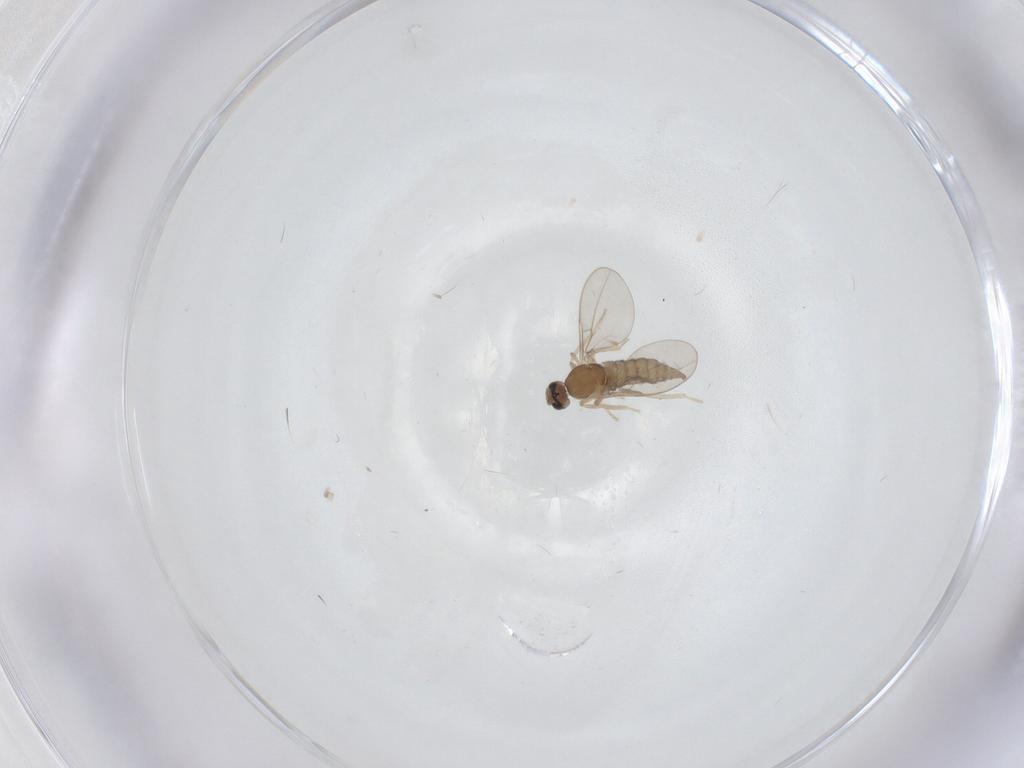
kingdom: Animalia
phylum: Arthropoda
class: Insecta
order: Diptera
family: Cecidomyiidae
